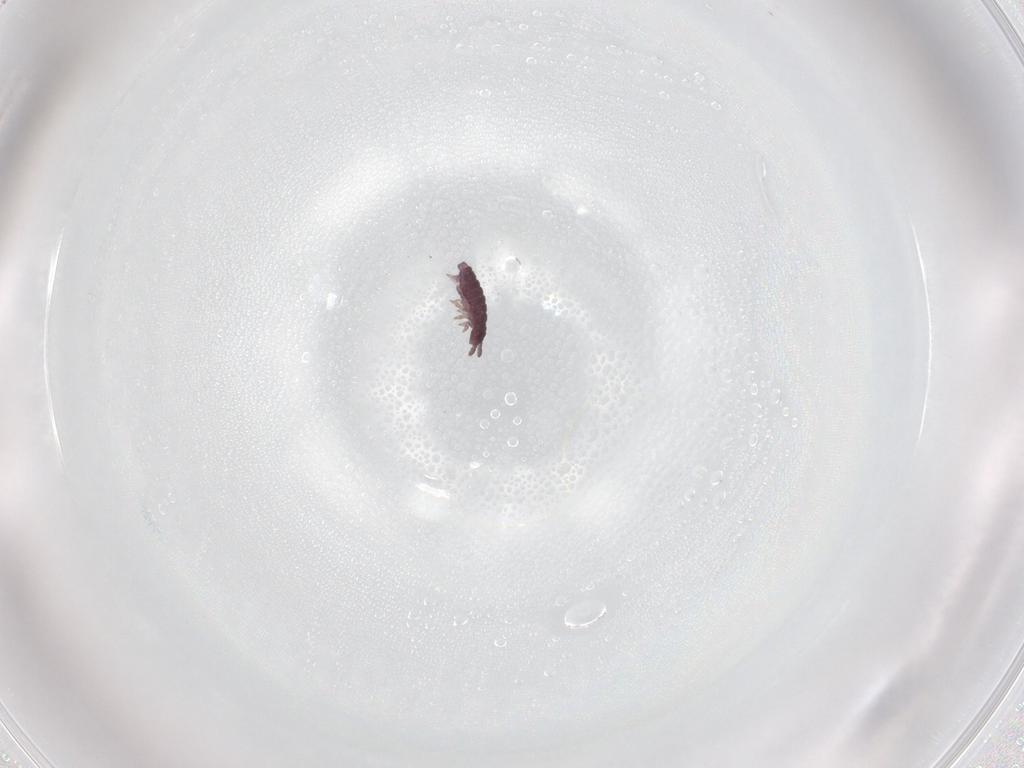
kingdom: Animalia
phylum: Arthropoda
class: Collembola
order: Poduromorpha
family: Hypogastruridae
